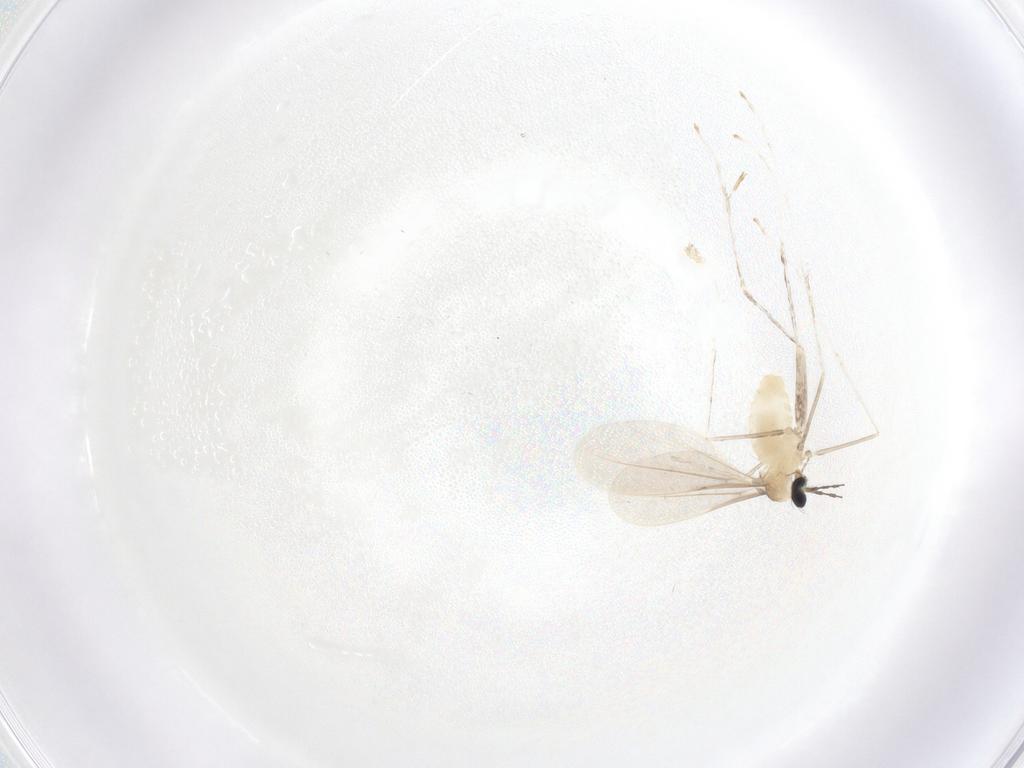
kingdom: Animalia
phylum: Arthropoda
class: Insecta
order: Diptera
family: Cecidomyiidae
